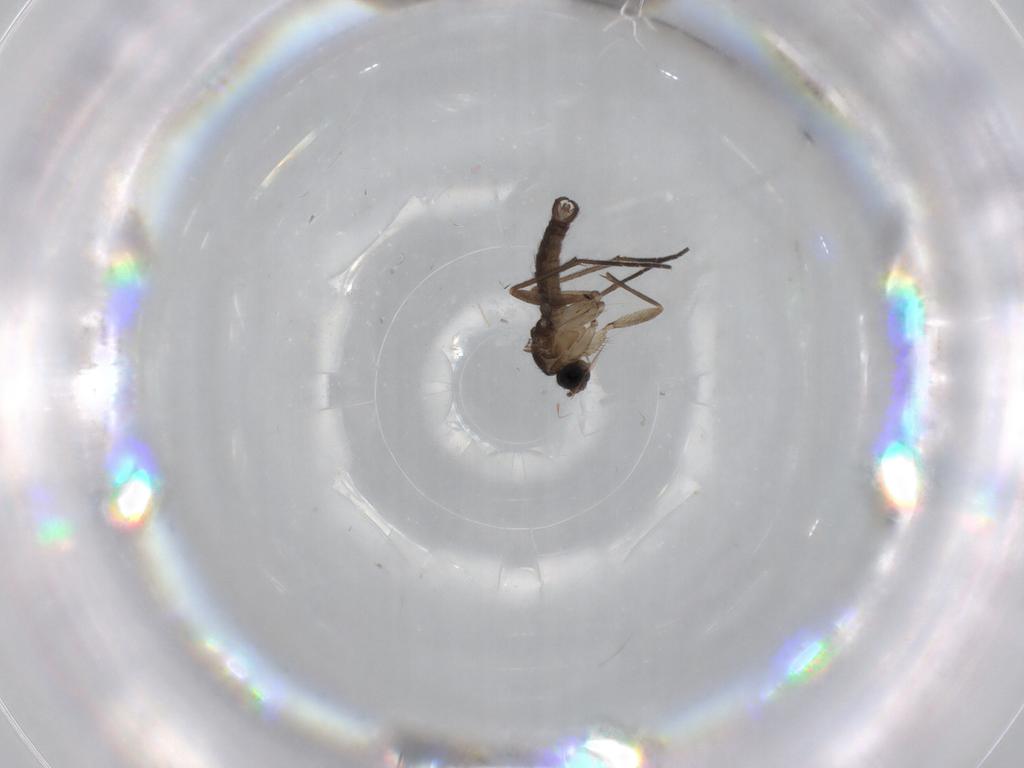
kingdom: Animalia
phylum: Arthropoda
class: Insecta
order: Diptera
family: Sciaridae
